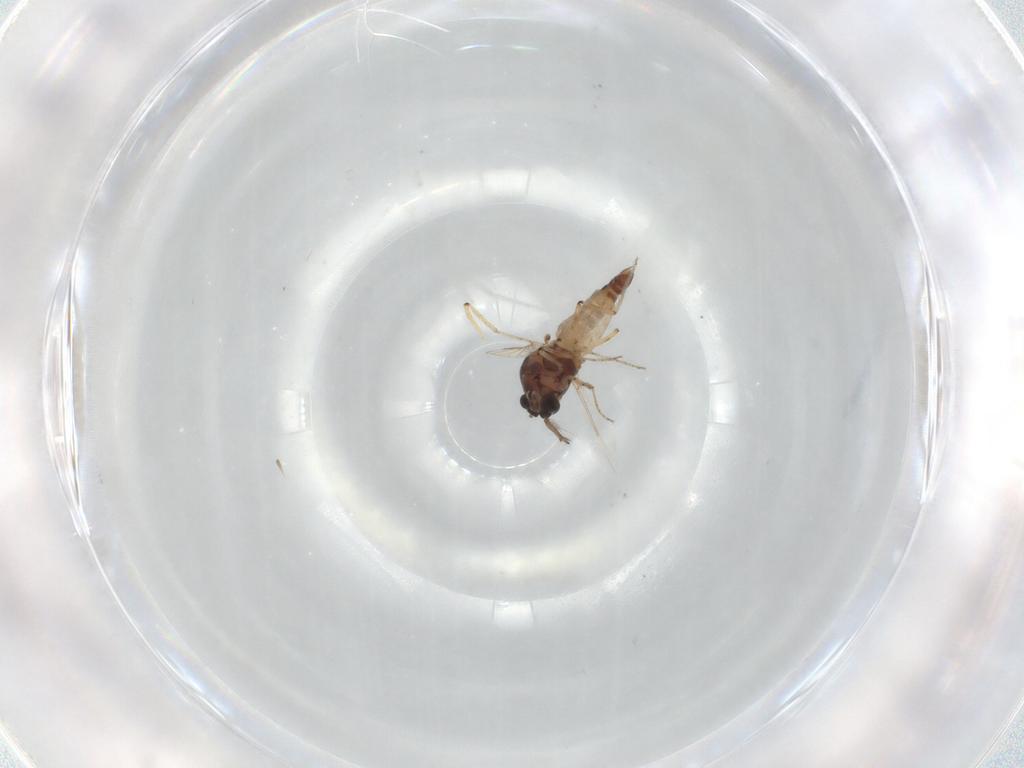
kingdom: Animalia
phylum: Arthropoda
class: Insecta
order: Diptera
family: Ceratopogonidae
